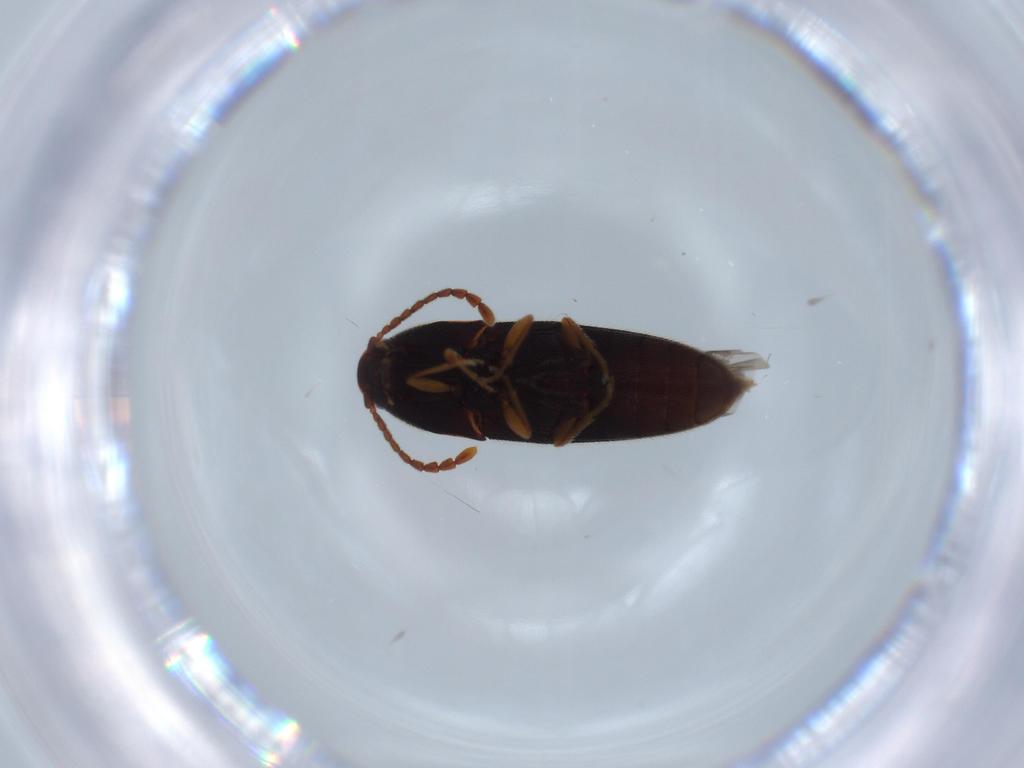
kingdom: Animalia
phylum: Arthropoda
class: Insecta
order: Coleoptera
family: Elateridae
